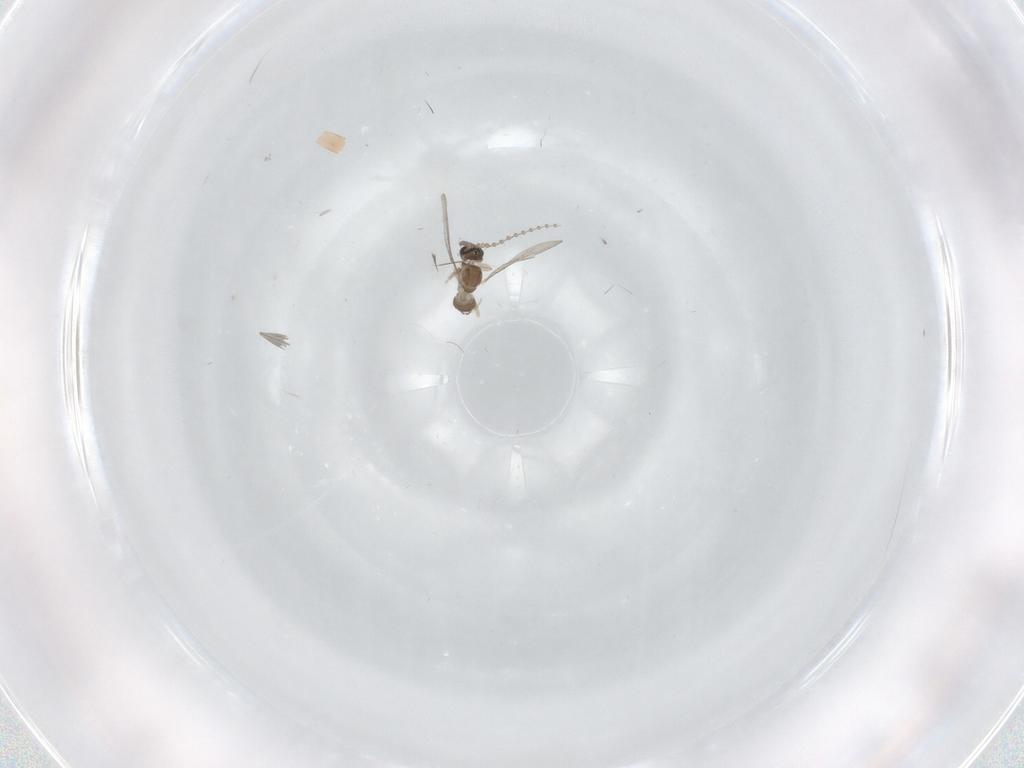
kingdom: Animalia
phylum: Arthropoda
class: Insecta
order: Diptera
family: Cecidomyiidae
